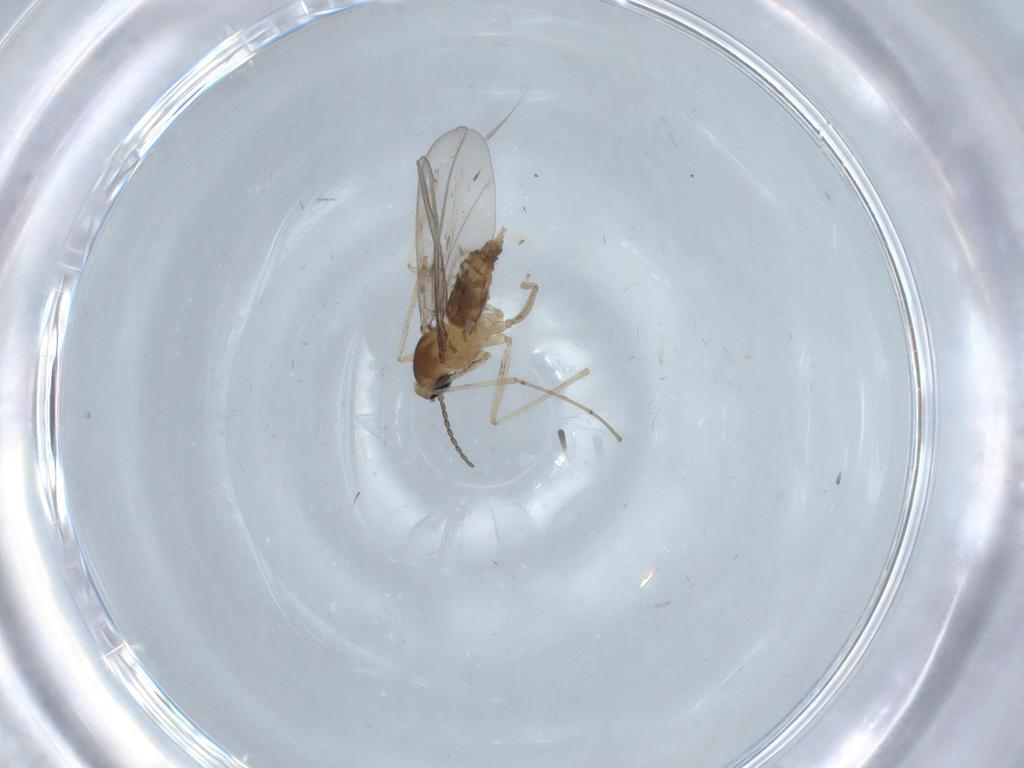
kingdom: Animalia
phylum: Arthropoda
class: Insecta
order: Diptera
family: Cecidomyiidae
